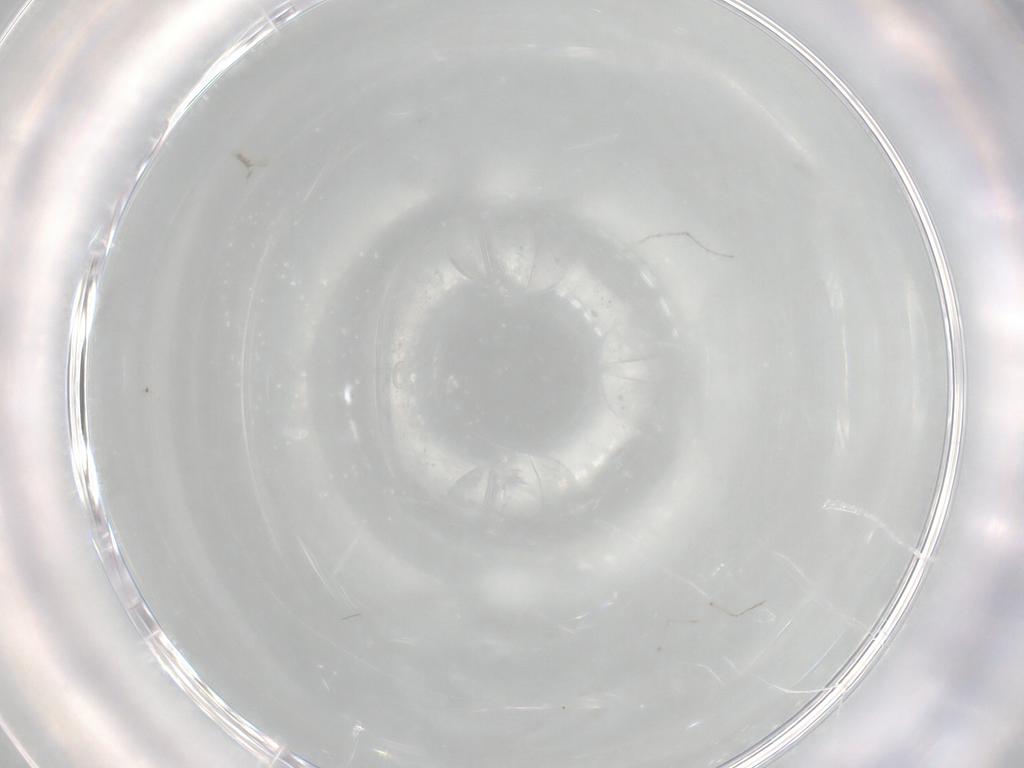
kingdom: Animalia
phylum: Arthropoda
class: Insecta
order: Diptera
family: Cecidomyiidae
